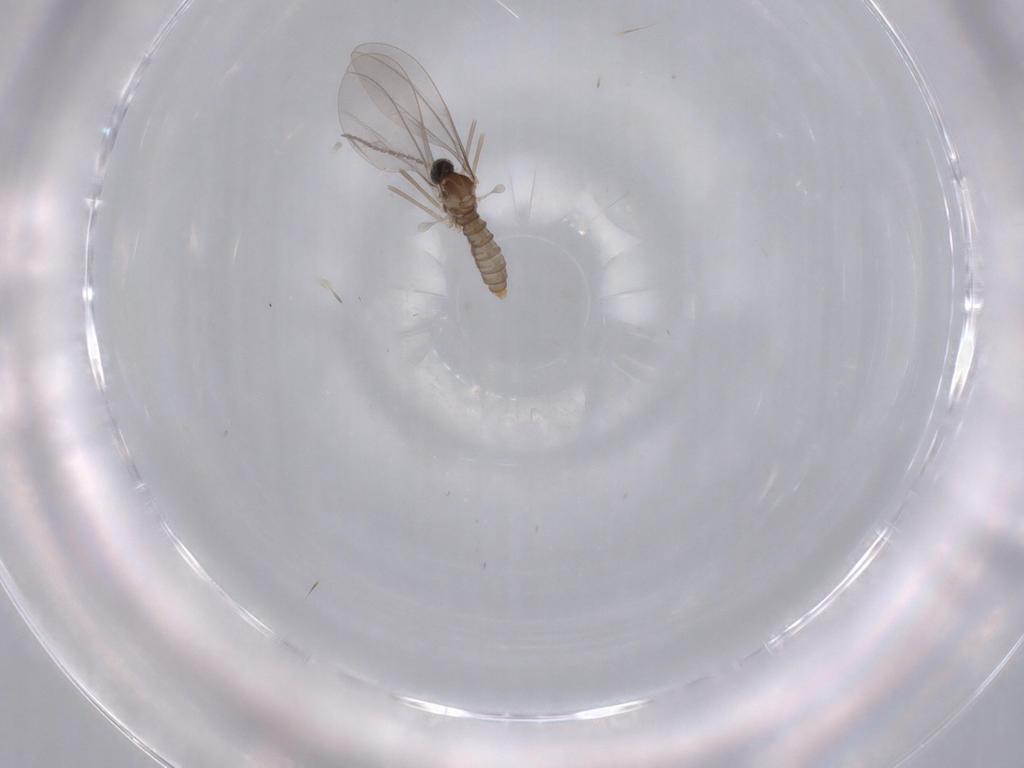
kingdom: Animalia
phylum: Arthropoda
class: Insecta
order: Diptera
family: Cecidomyiidae
